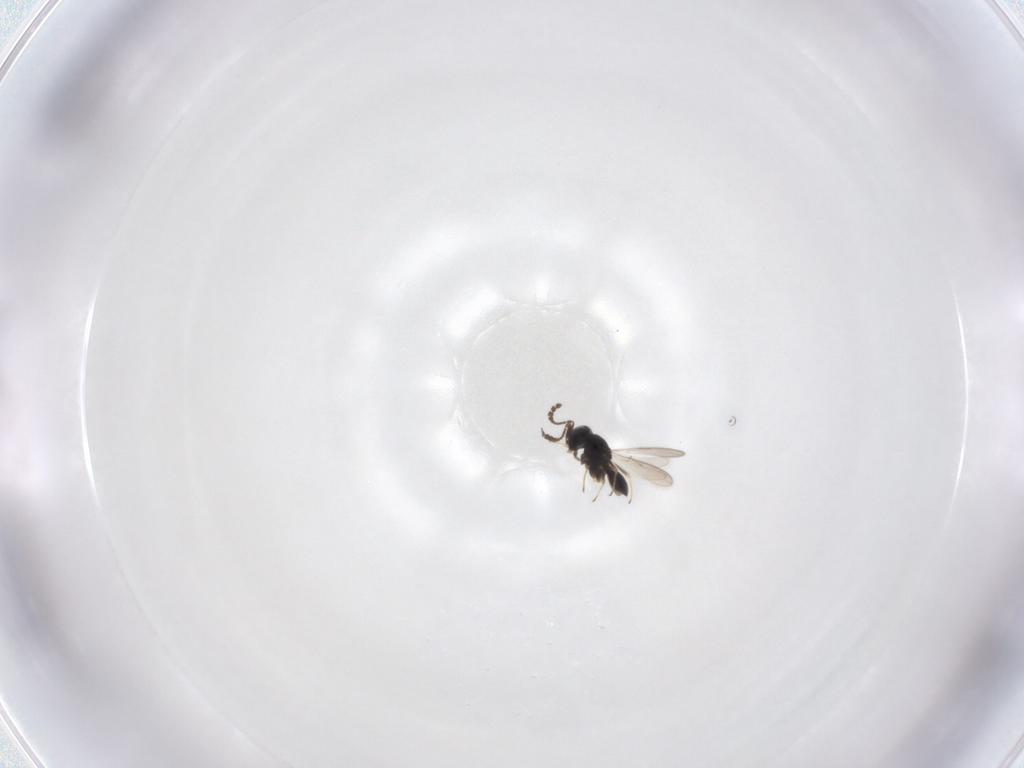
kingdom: Animalia
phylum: Arthropoda
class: Insecta
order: Hymenoptera
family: Scelionidae
